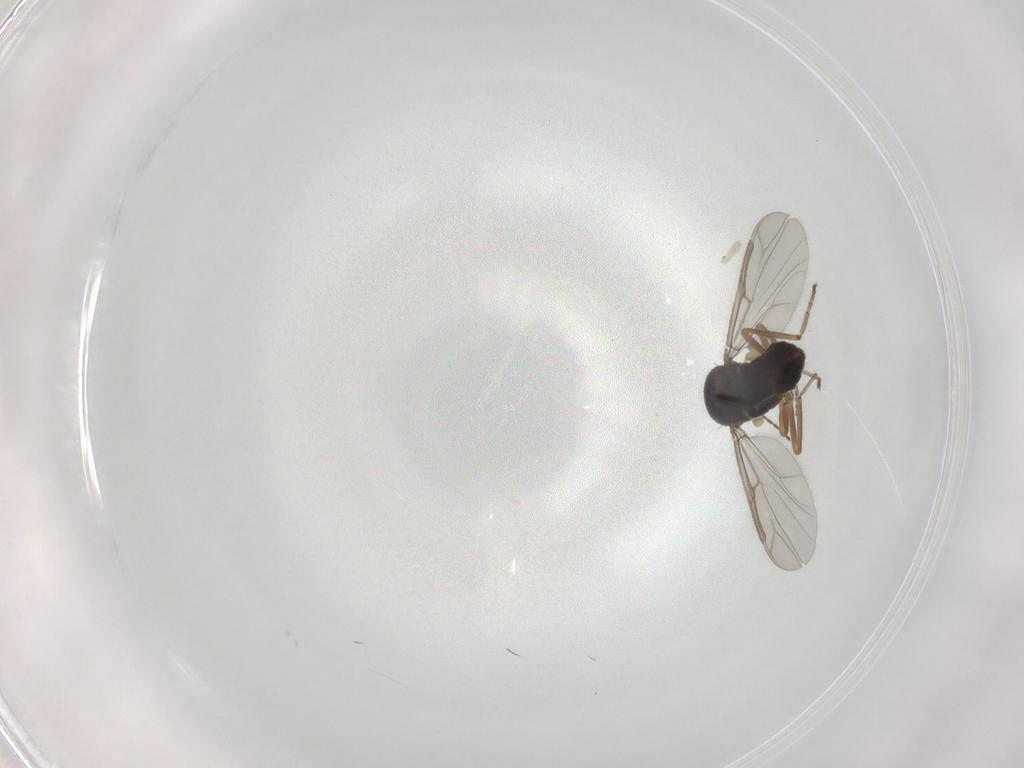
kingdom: Animalia
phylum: Arthropoda
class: Insecta
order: Diptera
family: Ceratopogonidae
